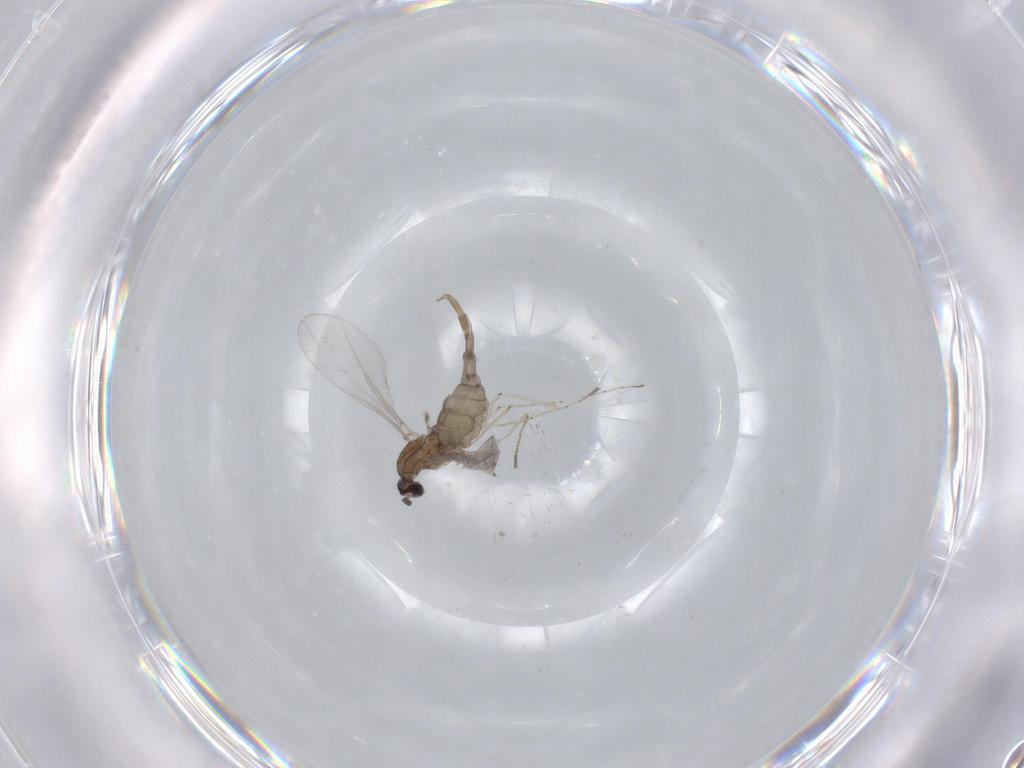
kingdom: Animalia
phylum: Arthropoda
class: Insecta
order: Diptera
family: Cecidomyiidae
